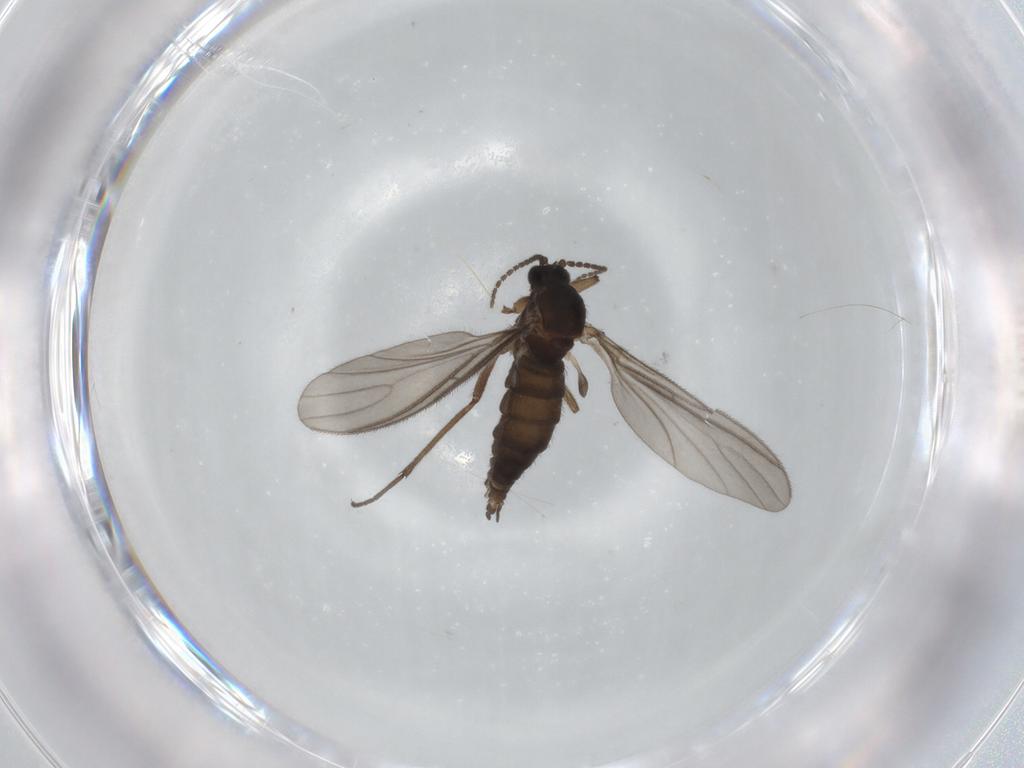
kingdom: Animalia
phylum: Arthropoda
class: Insecta
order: Diptera
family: Sciaridae
